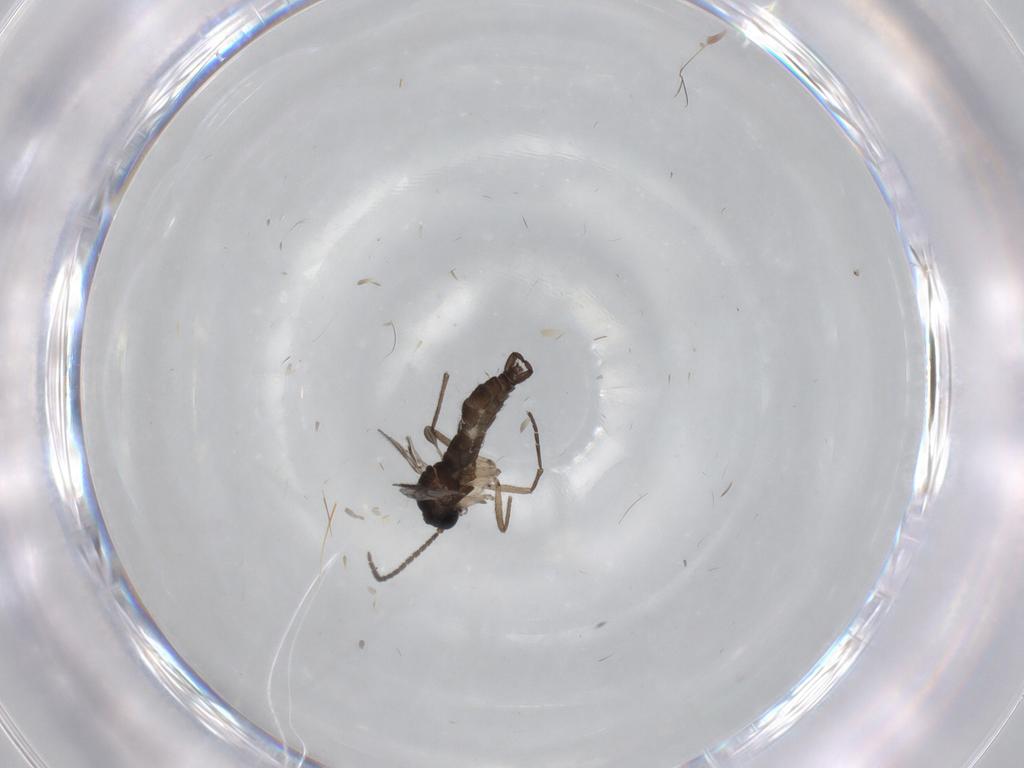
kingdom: Animalia
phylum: Arthropoda
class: Insecta
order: Diptera
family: Sciaridae
